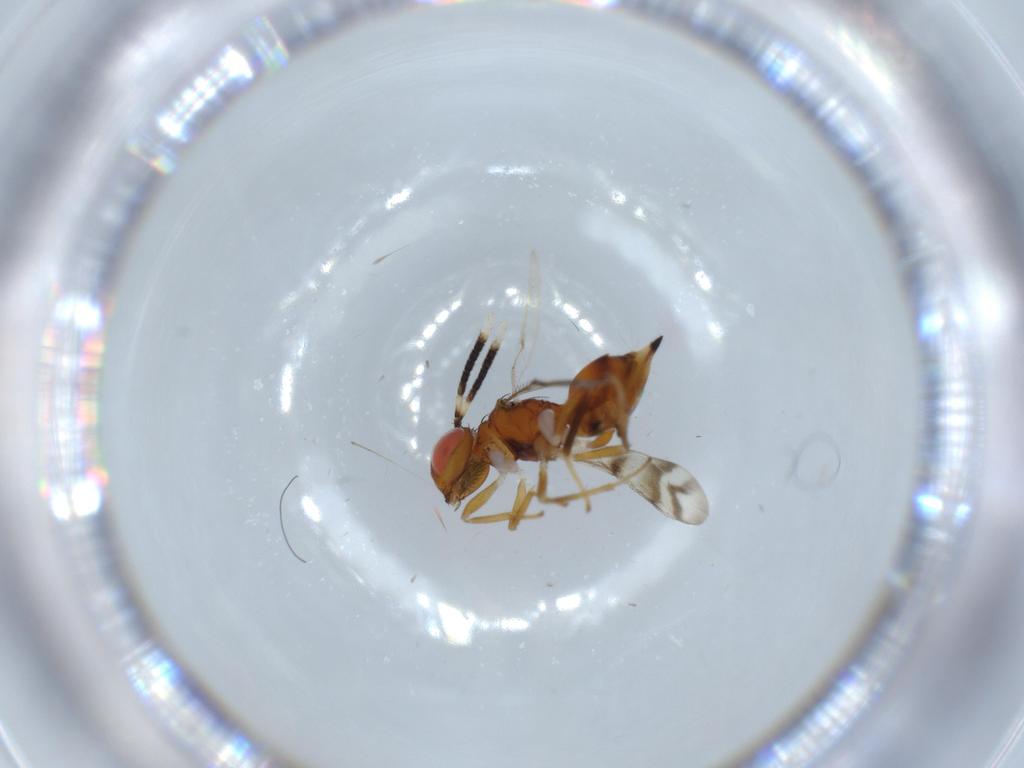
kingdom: Animalia
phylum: Arthropoda
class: Insecta
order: Hymenoptera
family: Diparidae
